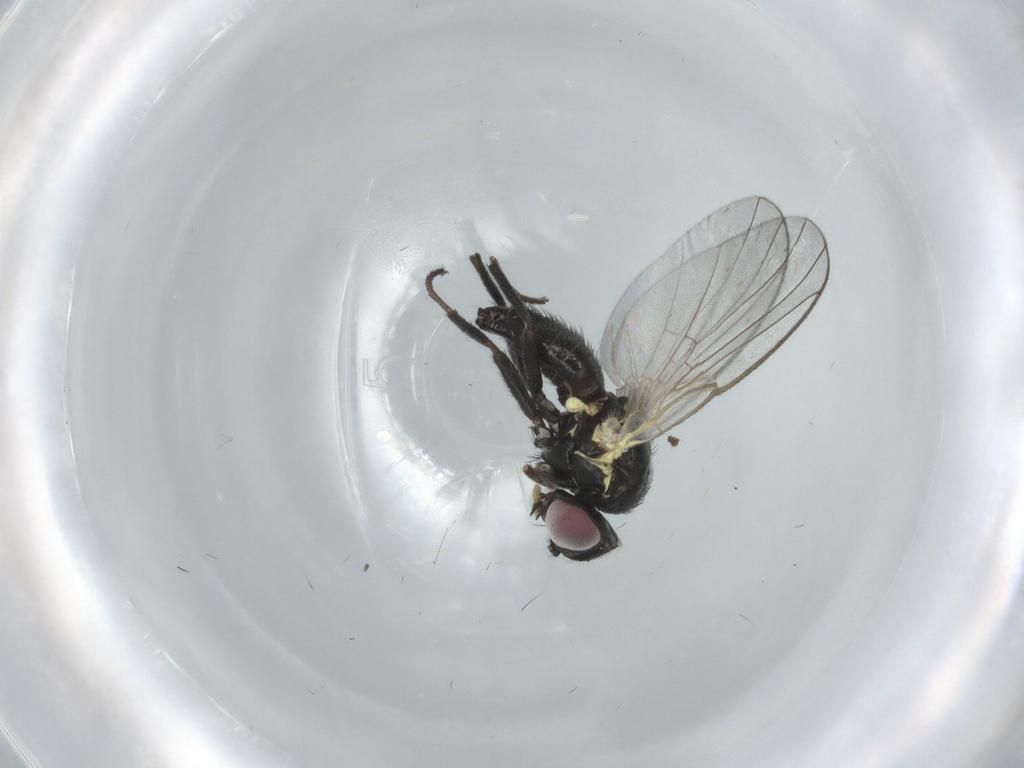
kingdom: Animalia
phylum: Arthropoda
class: Insecta
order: Diptera
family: Agromyzidae
